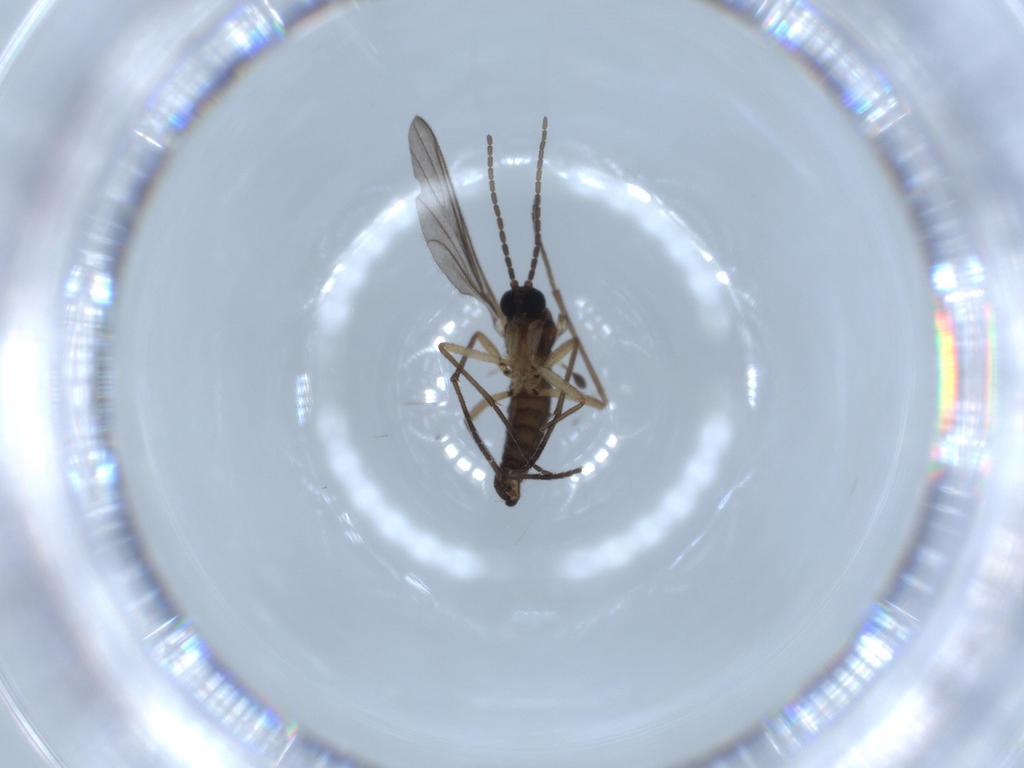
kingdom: Animalia
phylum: Arthropoda
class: Insecta
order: Diptera
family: Sciaridae
